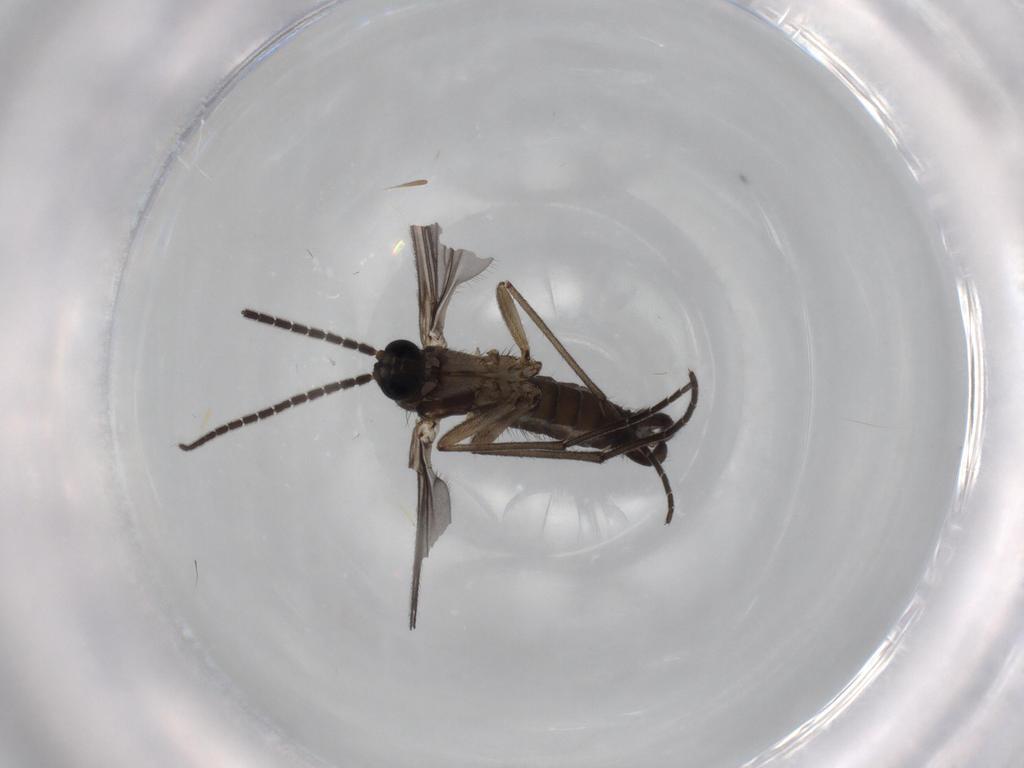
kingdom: Animalia
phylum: Arthropoda
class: Insecta
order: Diptera
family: Sciaridae
